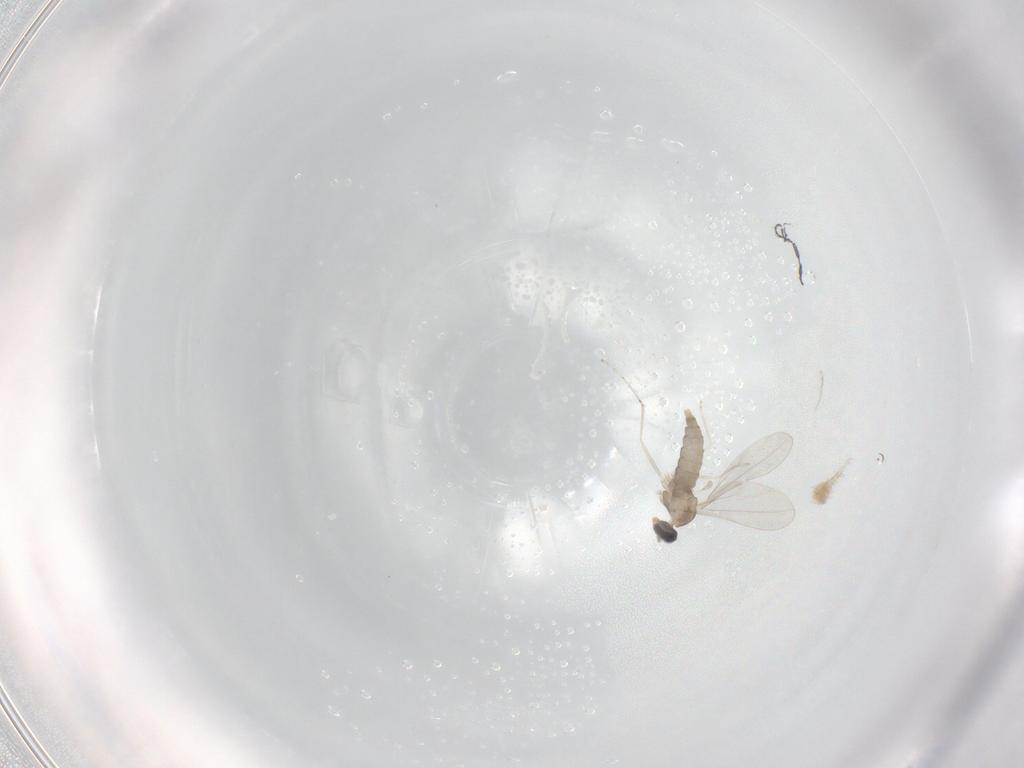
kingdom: Animalia
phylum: Arthropoda
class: Insecta
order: Diptera
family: Cecidomyiidae
